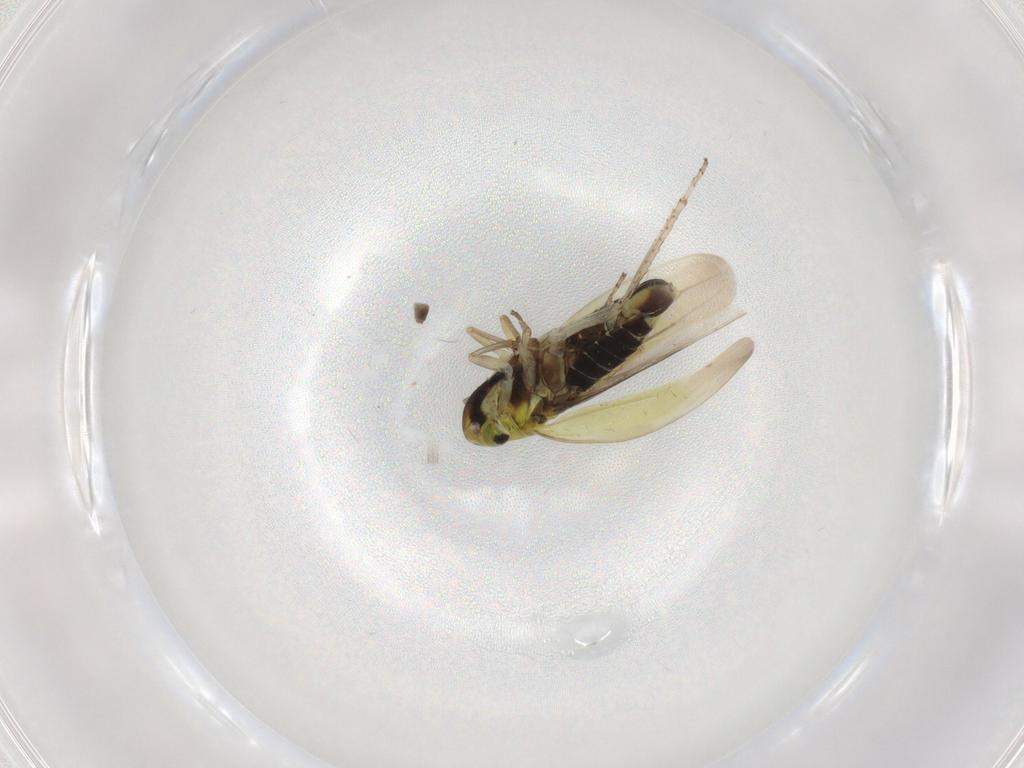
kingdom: Animalia
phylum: Arthropoda
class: Insecta
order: Hemiptera
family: Cicadellidae
